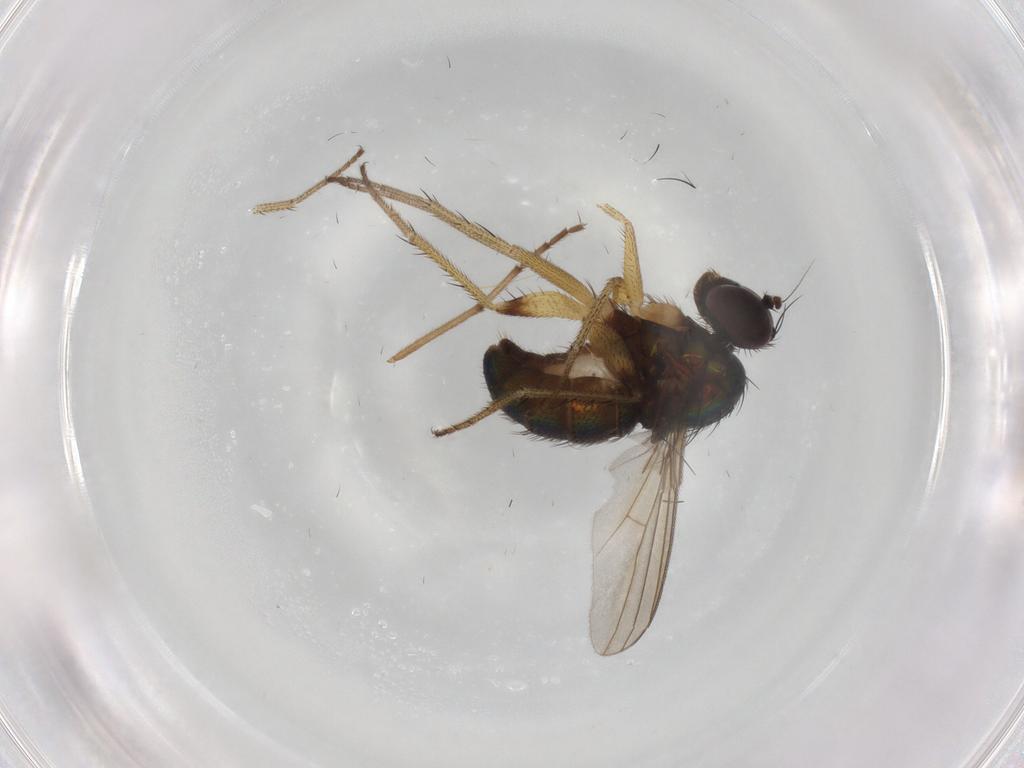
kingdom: Animalia
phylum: Arthropoda
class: Insecta
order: Diptera
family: Dolichopodidae
